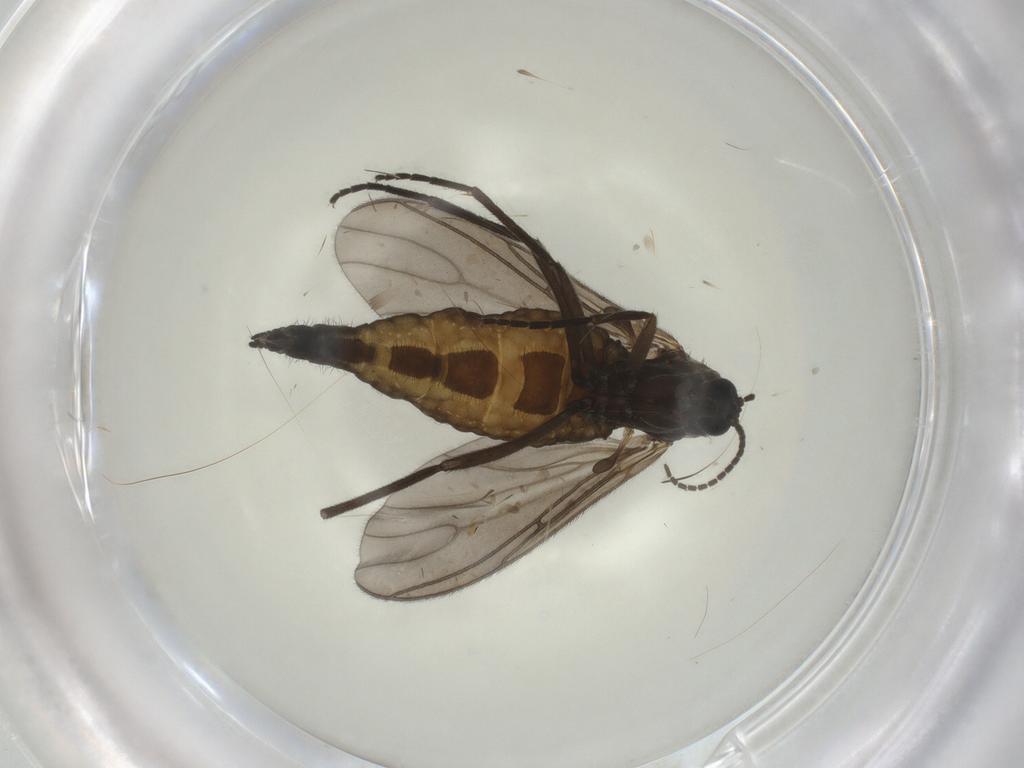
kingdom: Animalia
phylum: Arthropoda
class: Insecta
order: Diptera
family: Sciaridae
